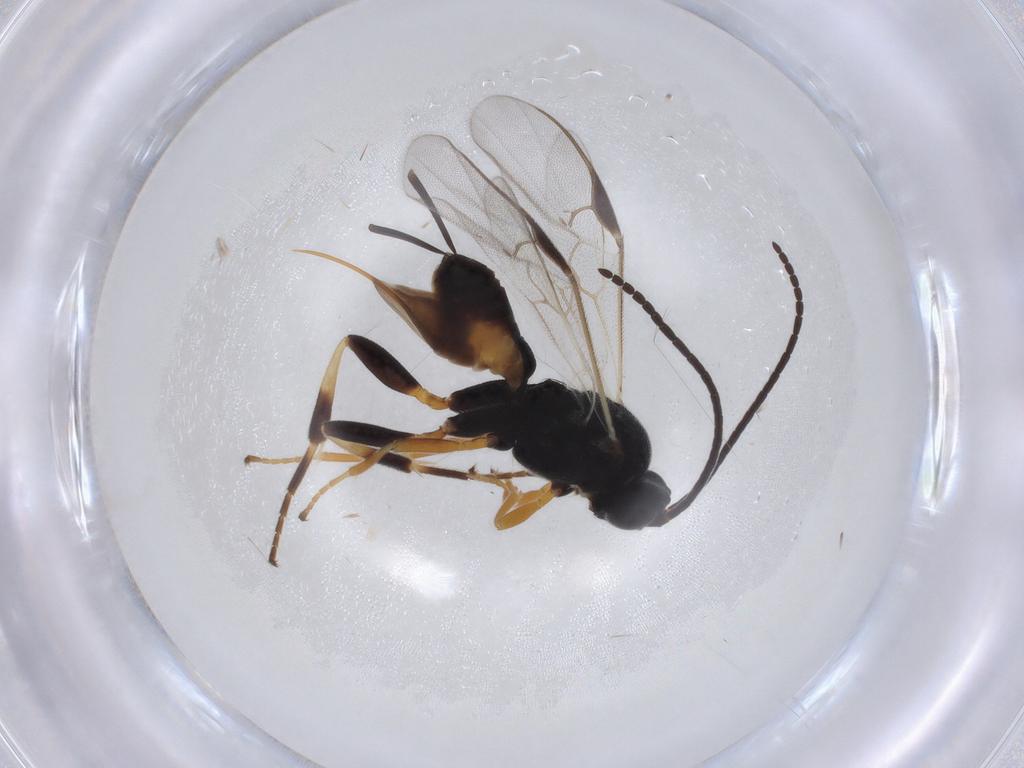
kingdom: Animalia
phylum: Arthropoda
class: Insecta
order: Hymenoptera
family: Braconidae
